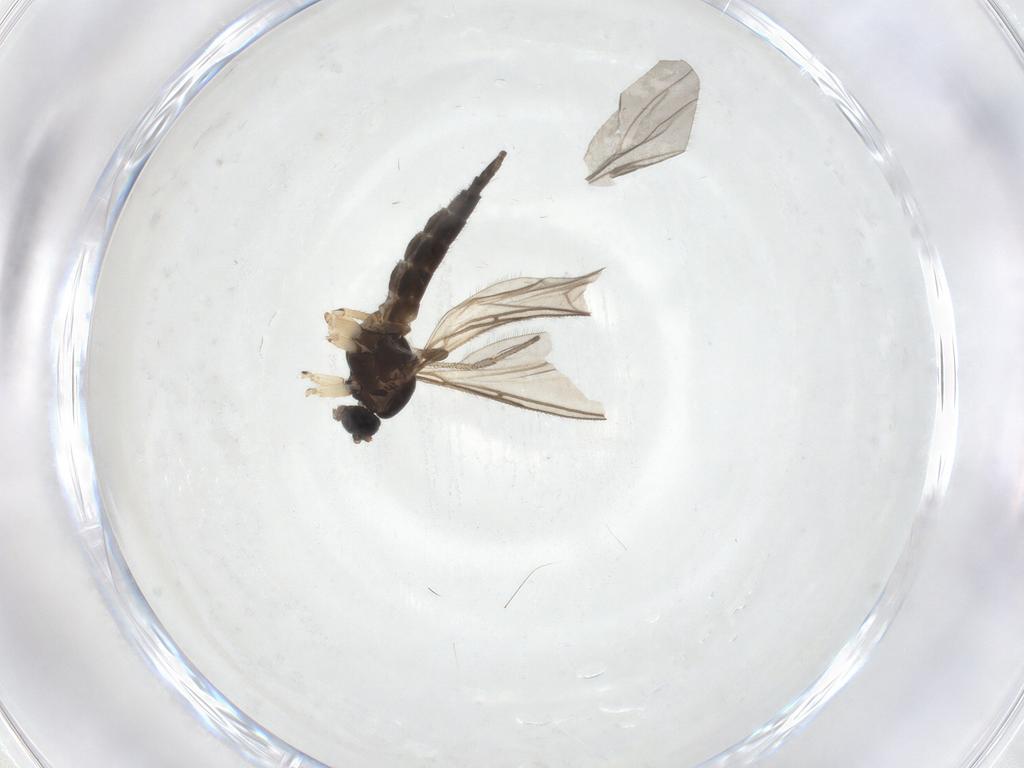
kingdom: Animalia
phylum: Arthropoda
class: Insecta
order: Diptera
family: Sciaridae
